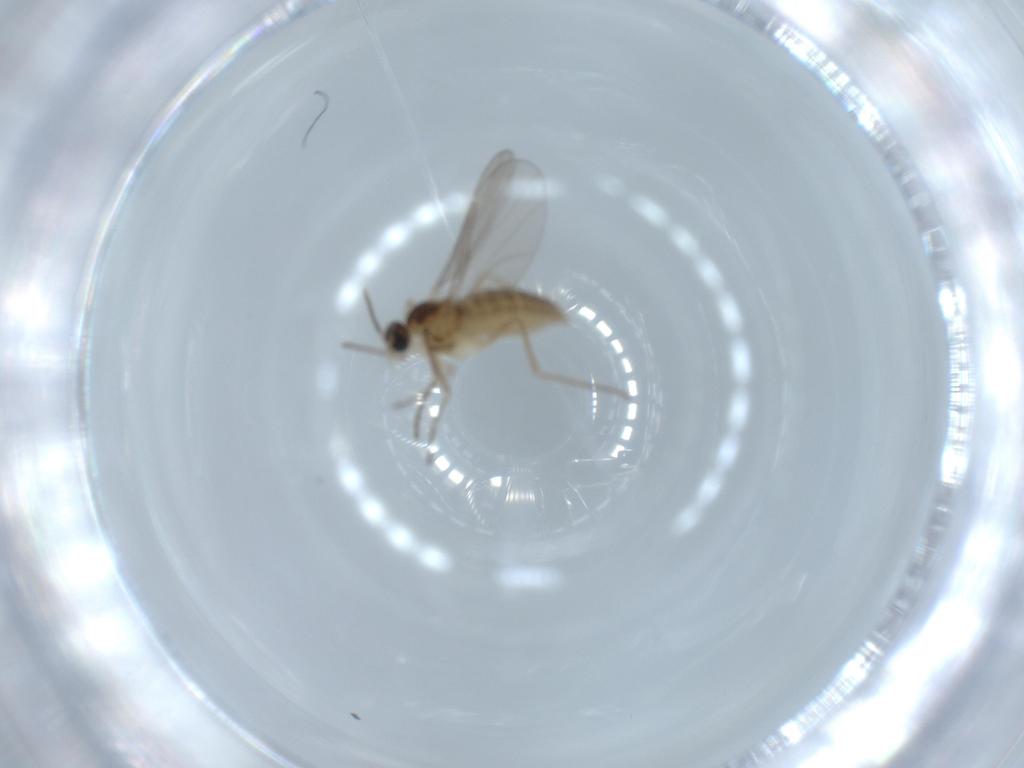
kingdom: Animalia
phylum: Arthropoda
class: Insecta
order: Diptera
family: Cecidomyiidae
